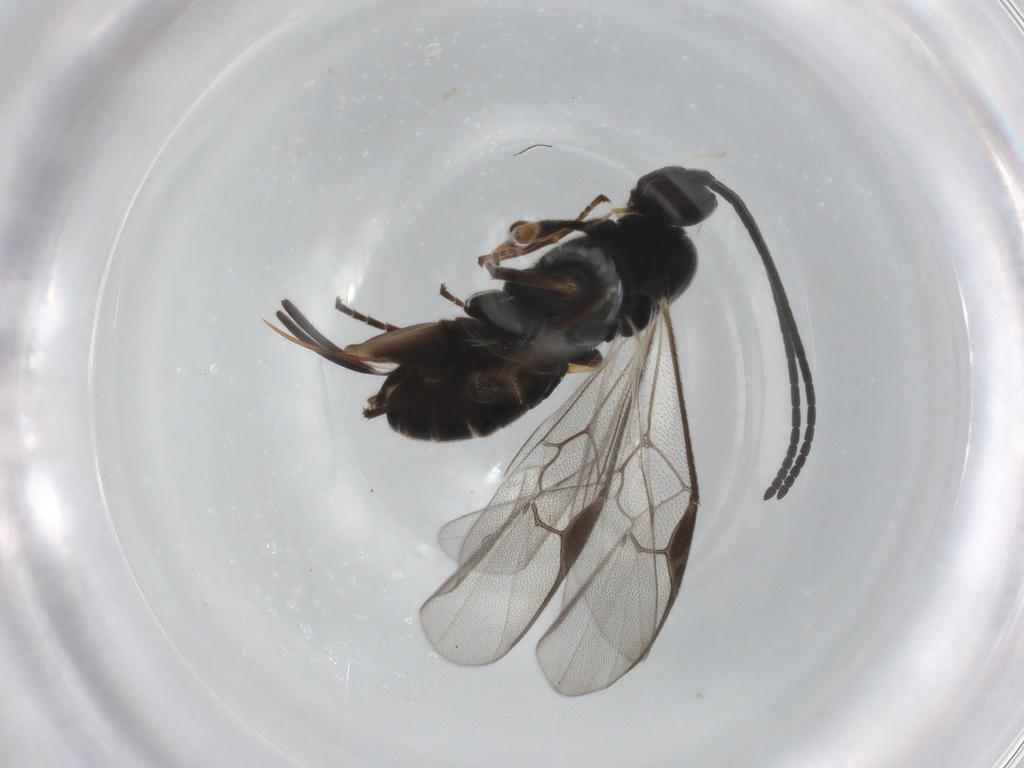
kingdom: Animalia
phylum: Arthropoda
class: Insecta
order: Hymenoptera
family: Braconidae
